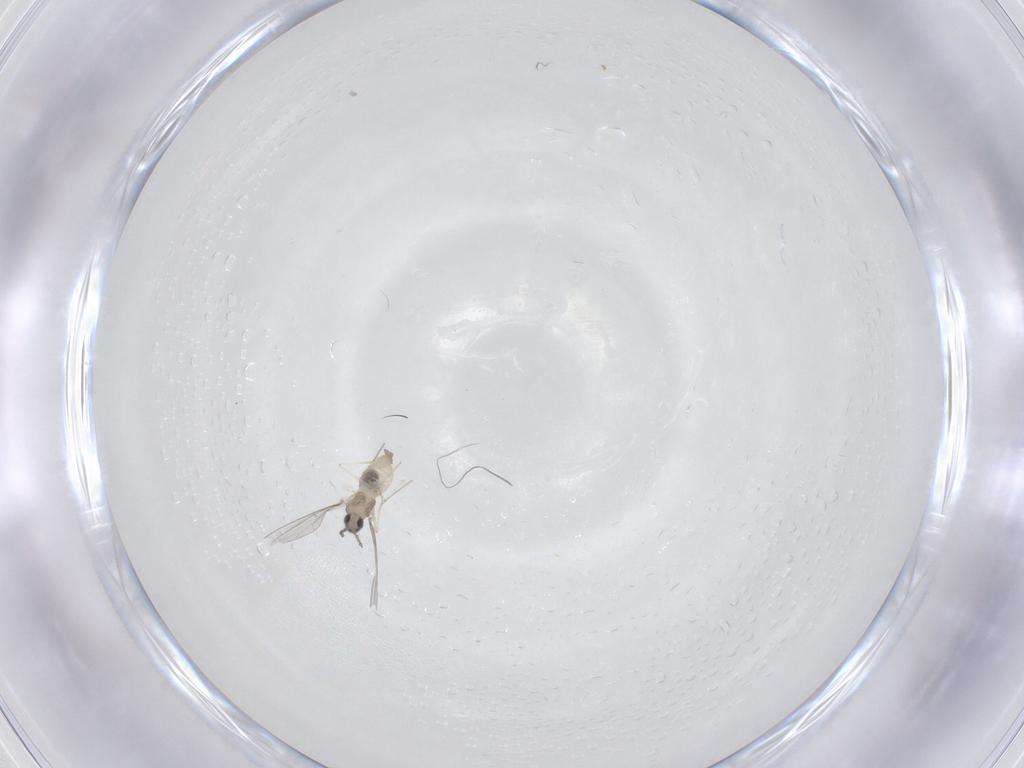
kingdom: Animalia
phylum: Arthropoda
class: Insecta
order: Diptera
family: Cecidomyiidae
